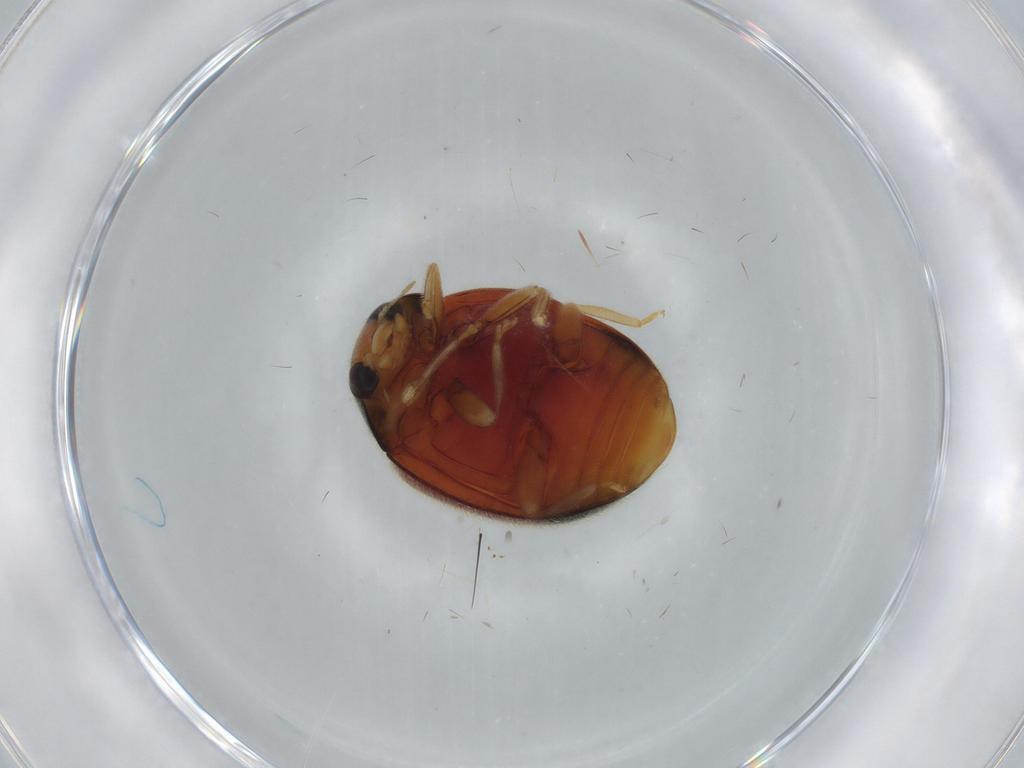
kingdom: Animalia
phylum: Arthropoda
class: Insecta
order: Coleoptera
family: Coccinellidae
